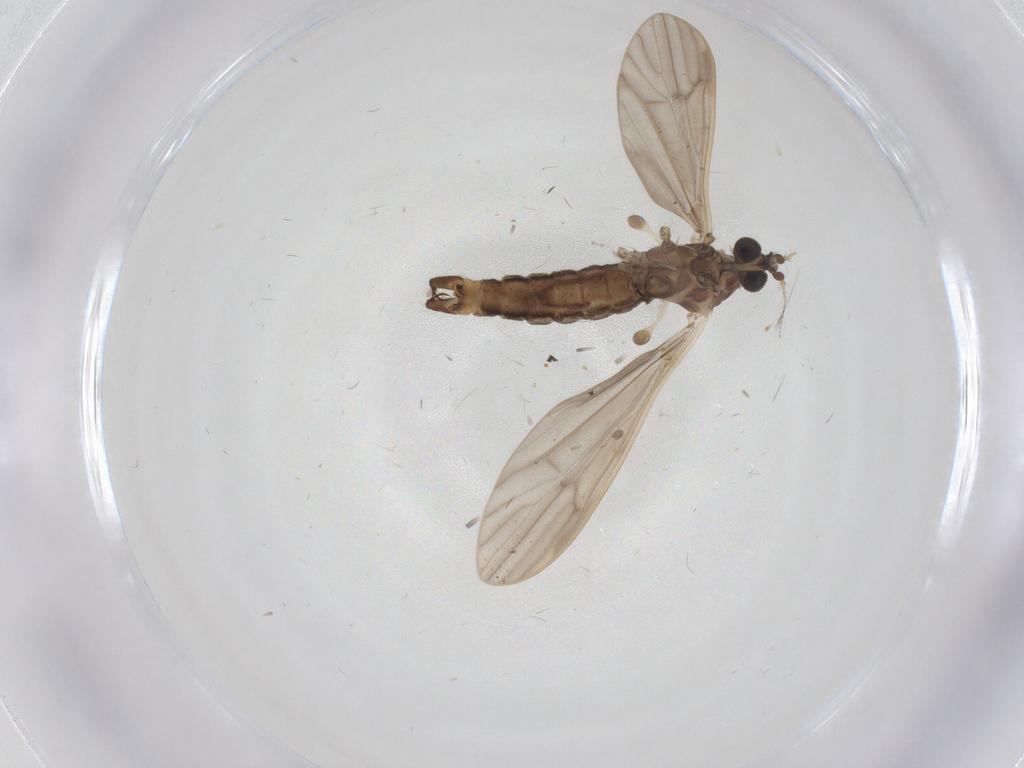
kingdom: Animalia
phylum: Arthropoda
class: Insecta
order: Diptera
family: Limoniidae
